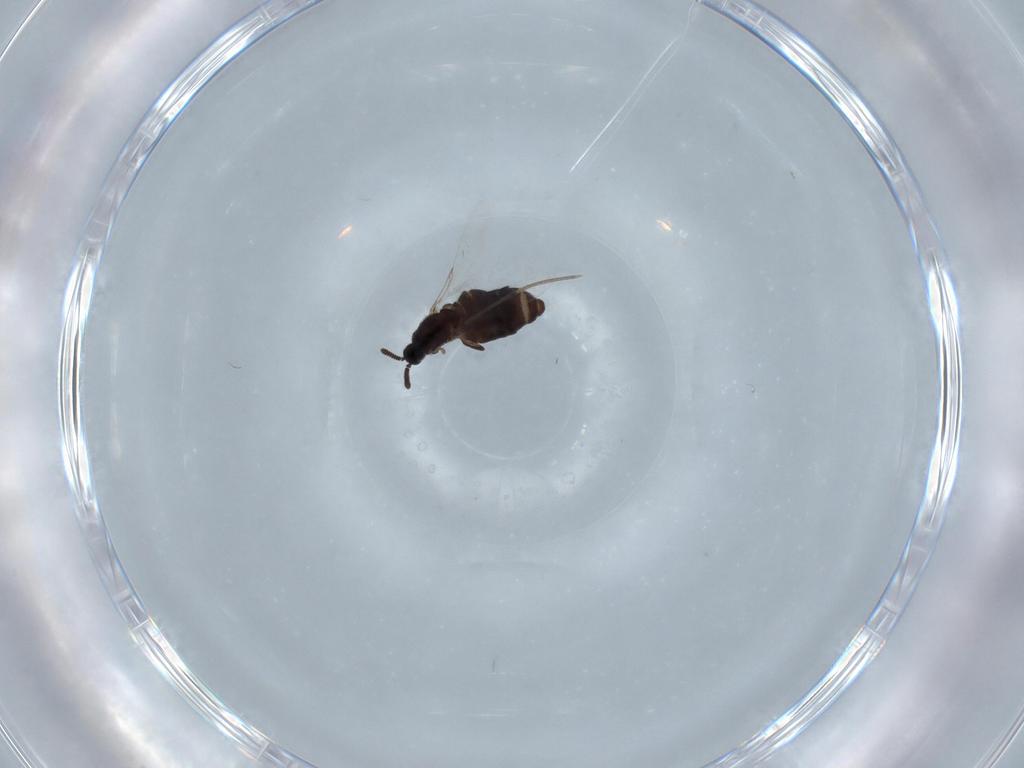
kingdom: Animalia
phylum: Arthropoda
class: Insecta
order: Diptera
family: Scatopsidae
